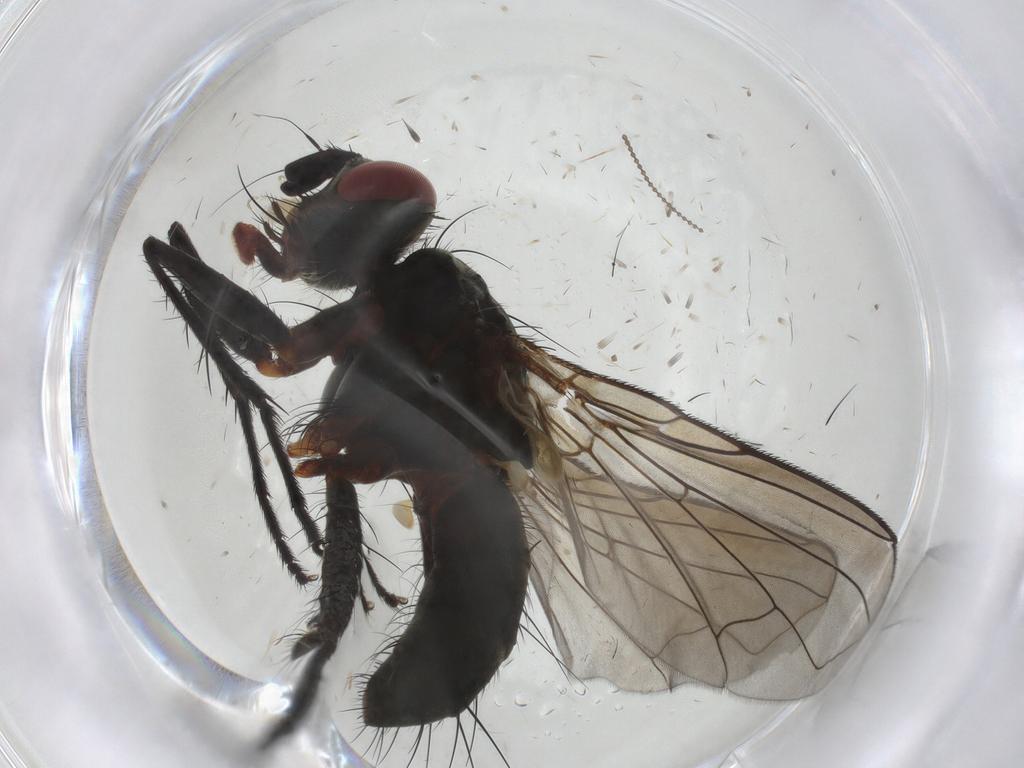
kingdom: Animalia
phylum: Arthropoda
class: Insecta
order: Diptera
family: Tachinidae
